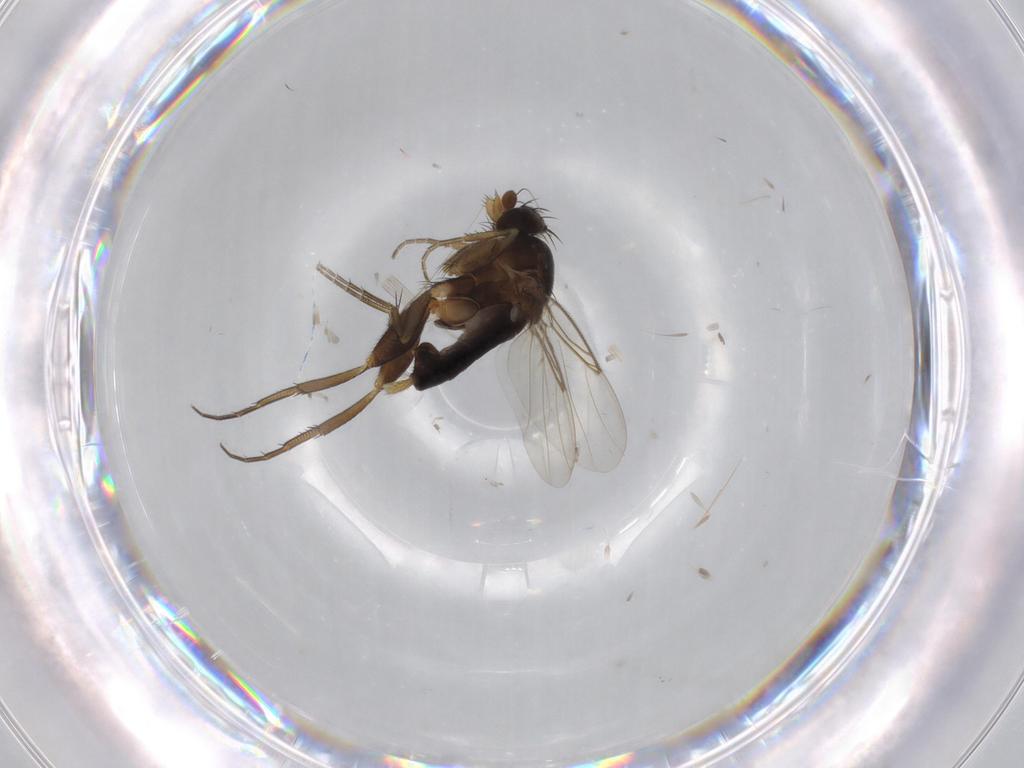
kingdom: Animalia
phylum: Arthropoda
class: Insecta
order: Diptera
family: Phoridae
